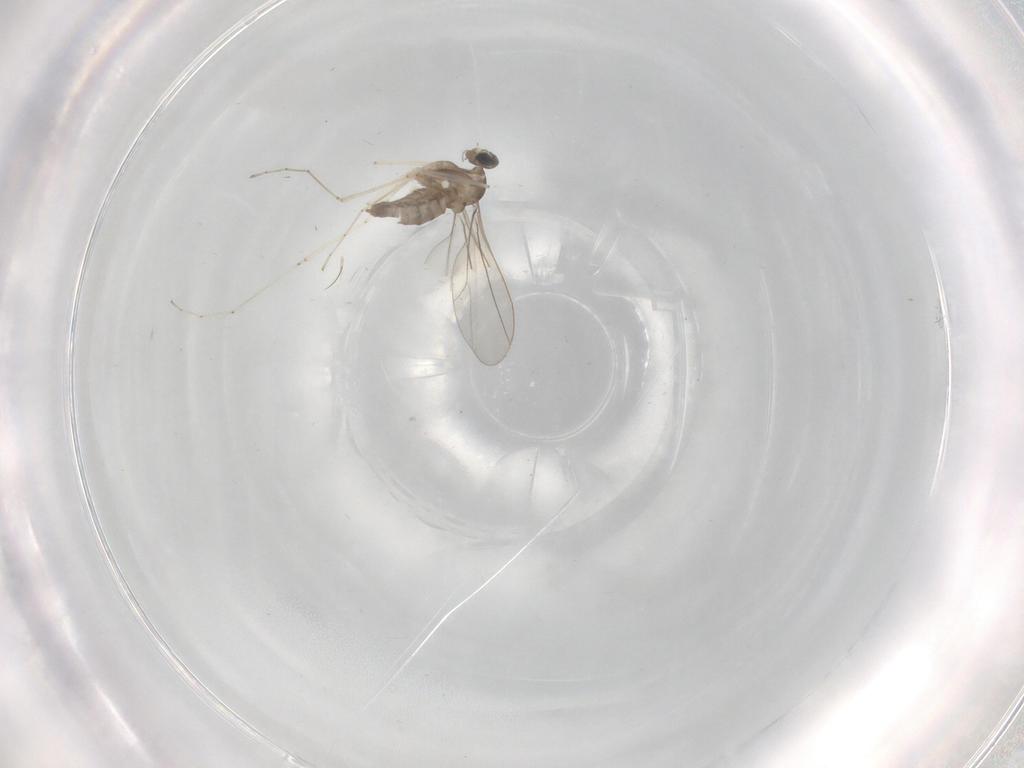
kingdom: Animalia
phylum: Arthropoda
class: Insecta
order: Diptera
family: Cecidomyiidae
